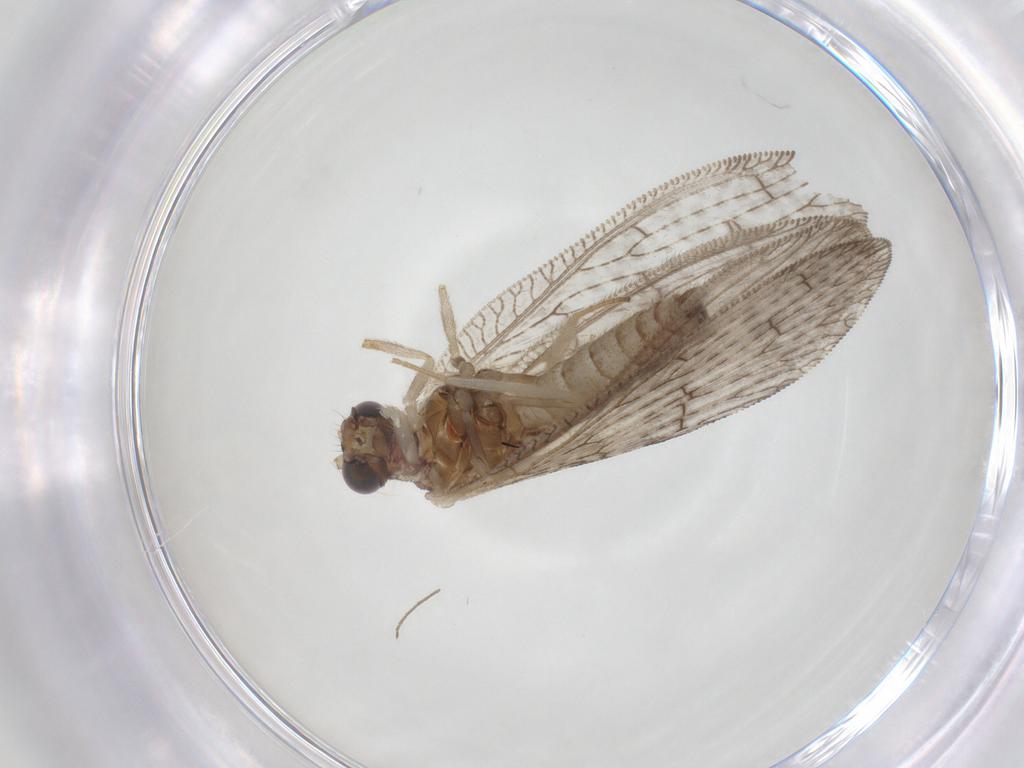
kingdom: Animalia
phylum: Arthropoda
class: Insecta
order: Neuroptera
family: Hemerobiidae
